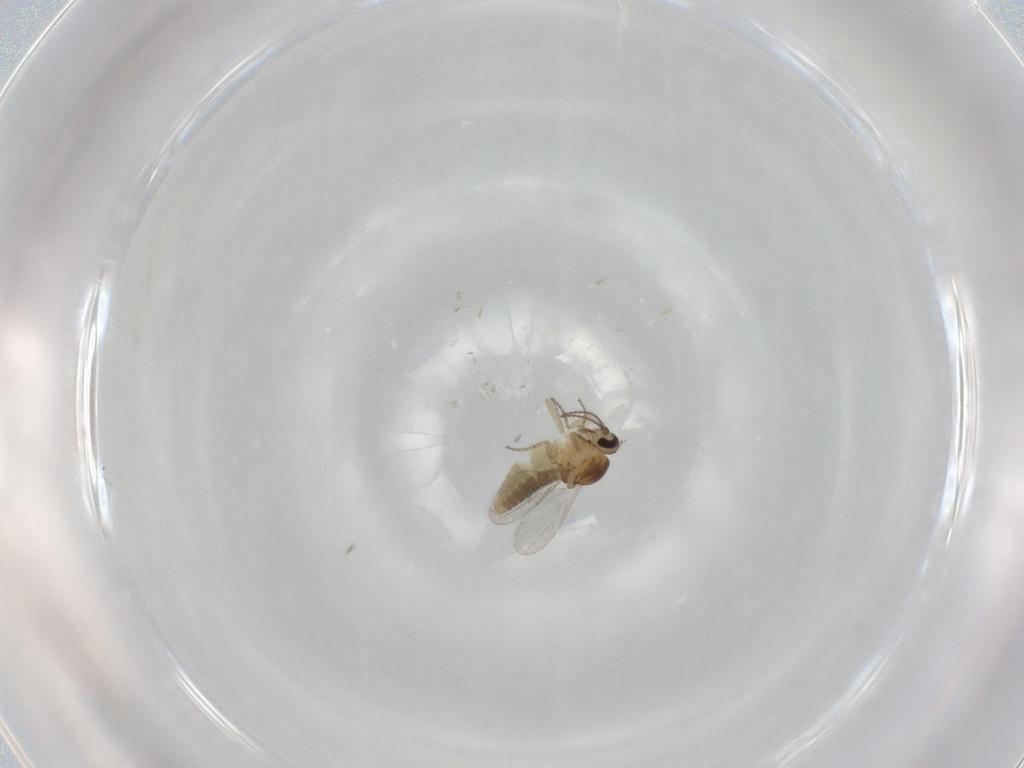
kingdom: Animalia
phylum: Arthropoda
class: Insecta
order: Diptera
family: Ceratopogonidae
